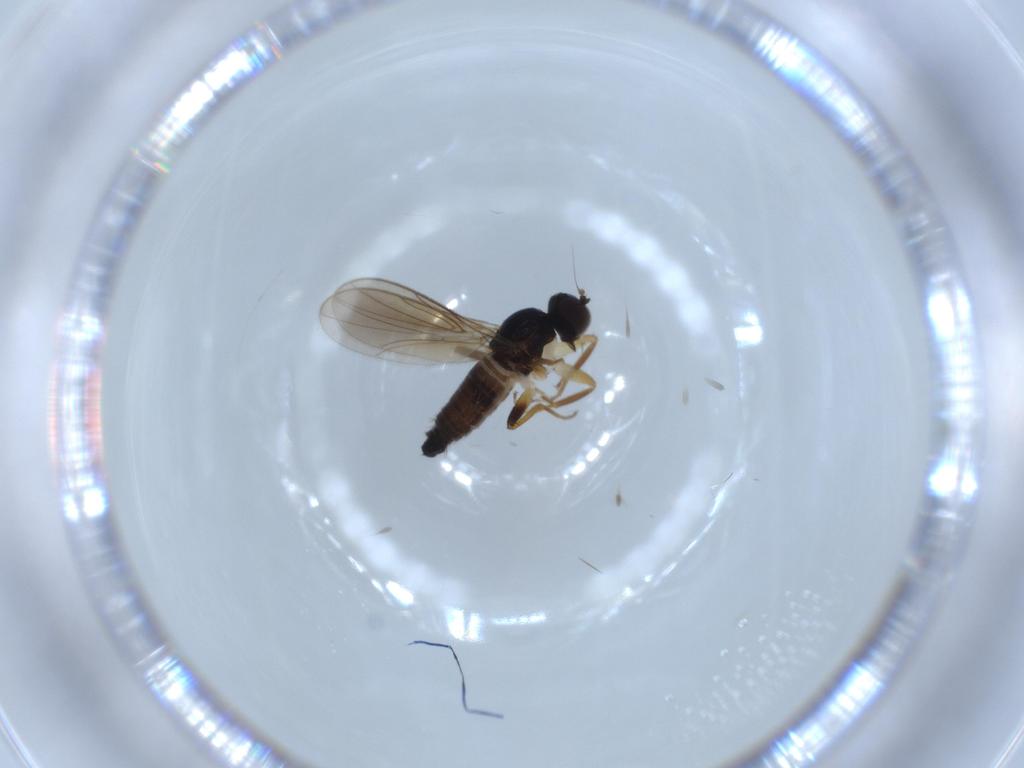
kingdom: Animalia
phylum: Arthropoda
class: Insecta
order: Diptera
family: Hybotidae
